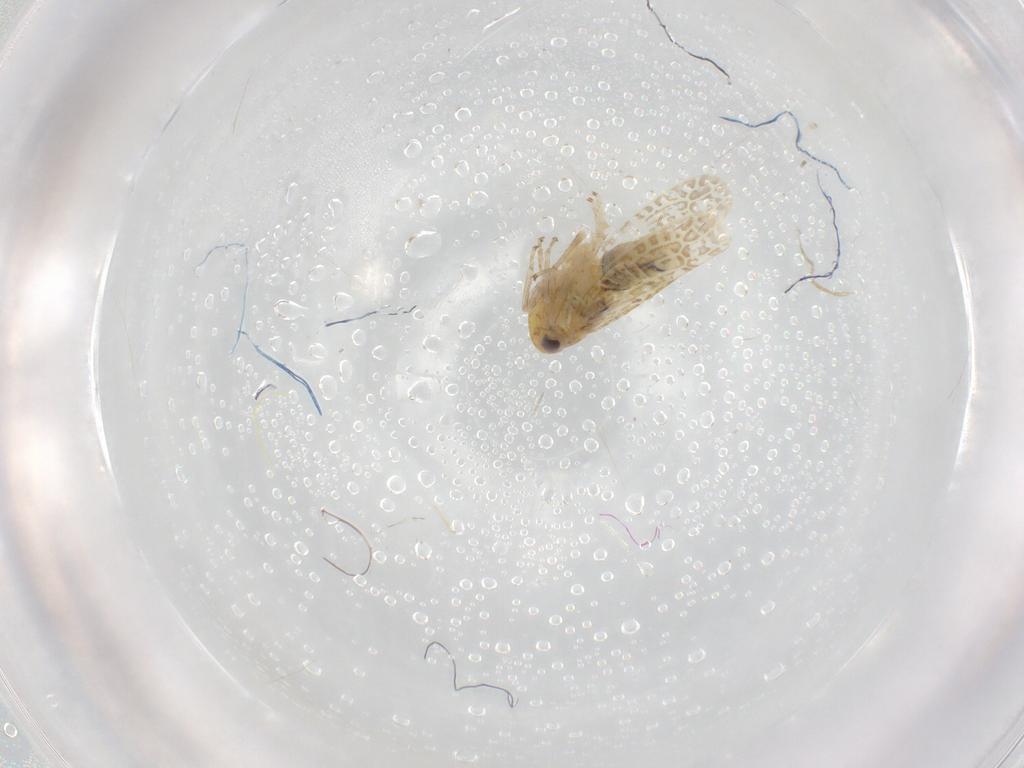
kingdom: Animalia
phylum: Arthropoda
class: Insecta
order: Hemiptera
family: Cicadellidae
